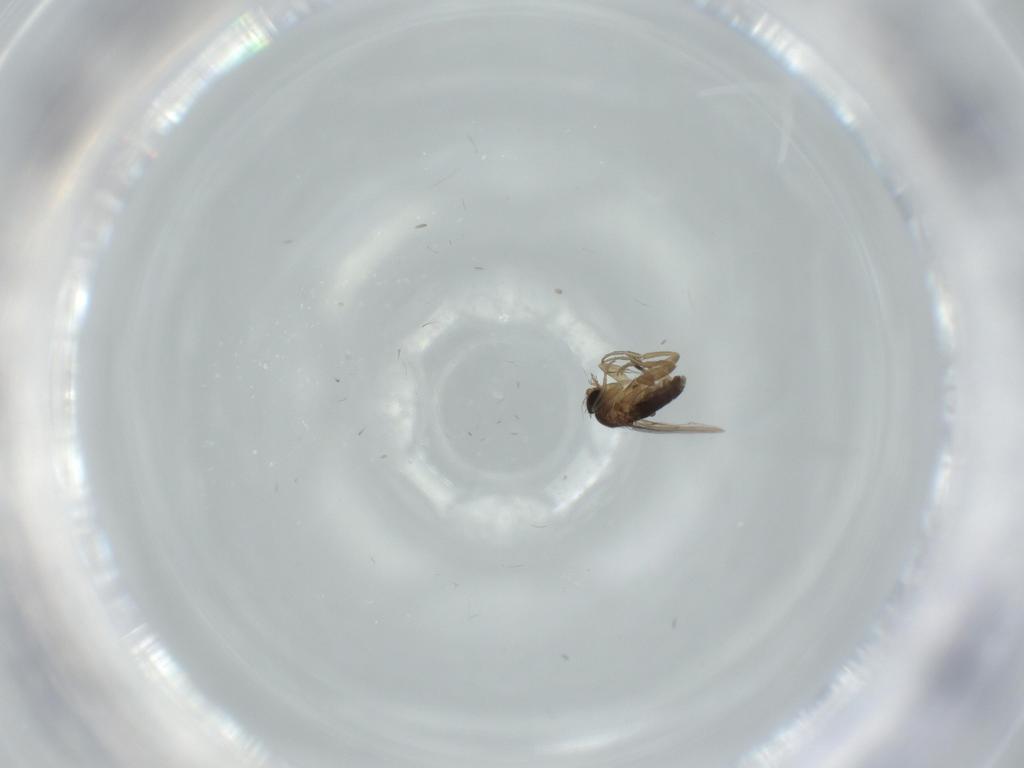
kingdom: Animalia
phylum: Arthropoda
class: Insecta
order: Diptera
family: Phoridae
